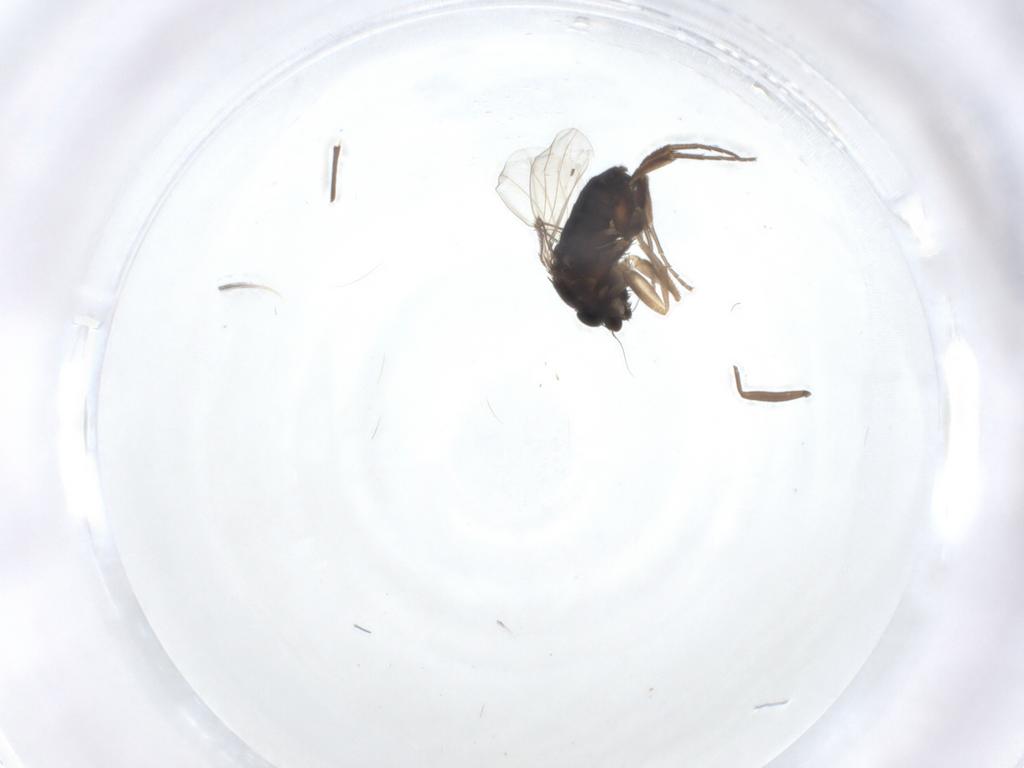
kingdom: Animalia
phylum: Arthropoda
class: Insecta
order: Diptera
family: Phoridae
